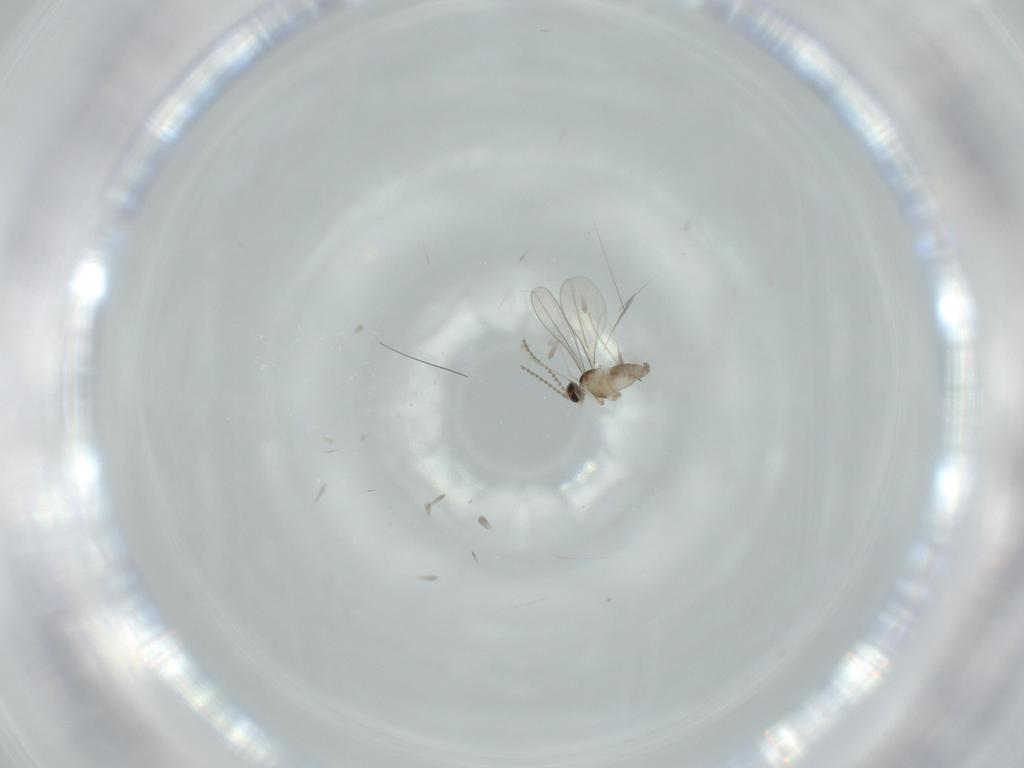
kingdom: Animalia
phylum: Arthropoda
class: Insecta
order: Diptera
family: Cecidomyiidae
